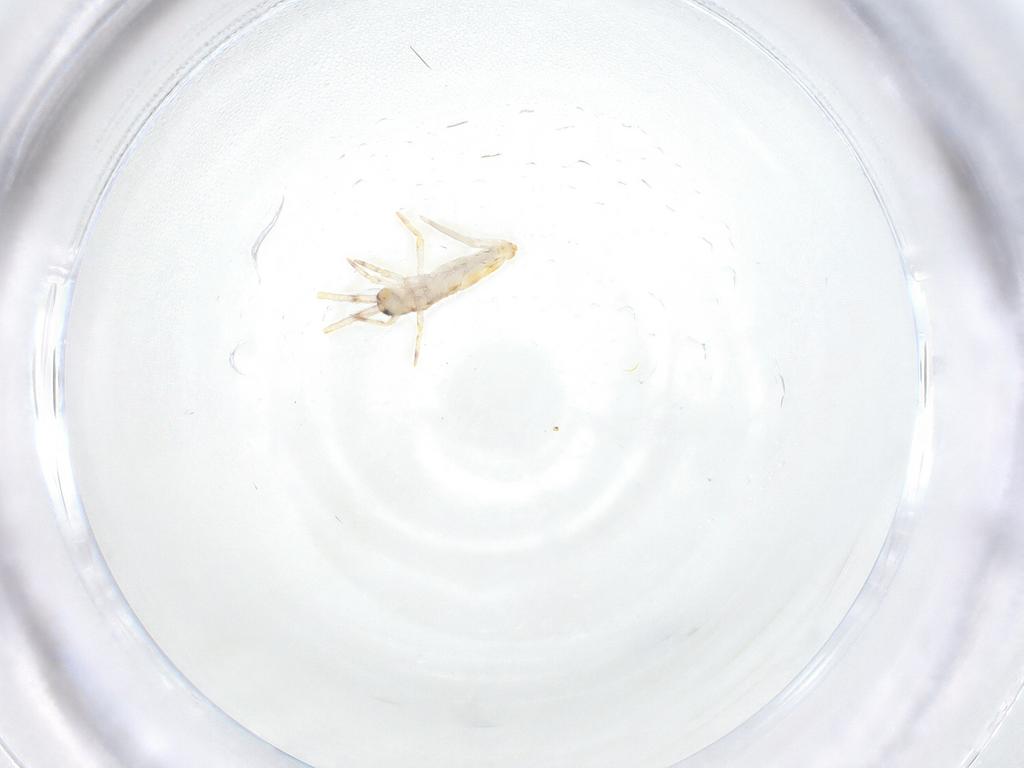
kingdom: Animalia
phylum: Arthropoda
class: Collembola
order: Entomobryomorpha
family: Entomobryidae
